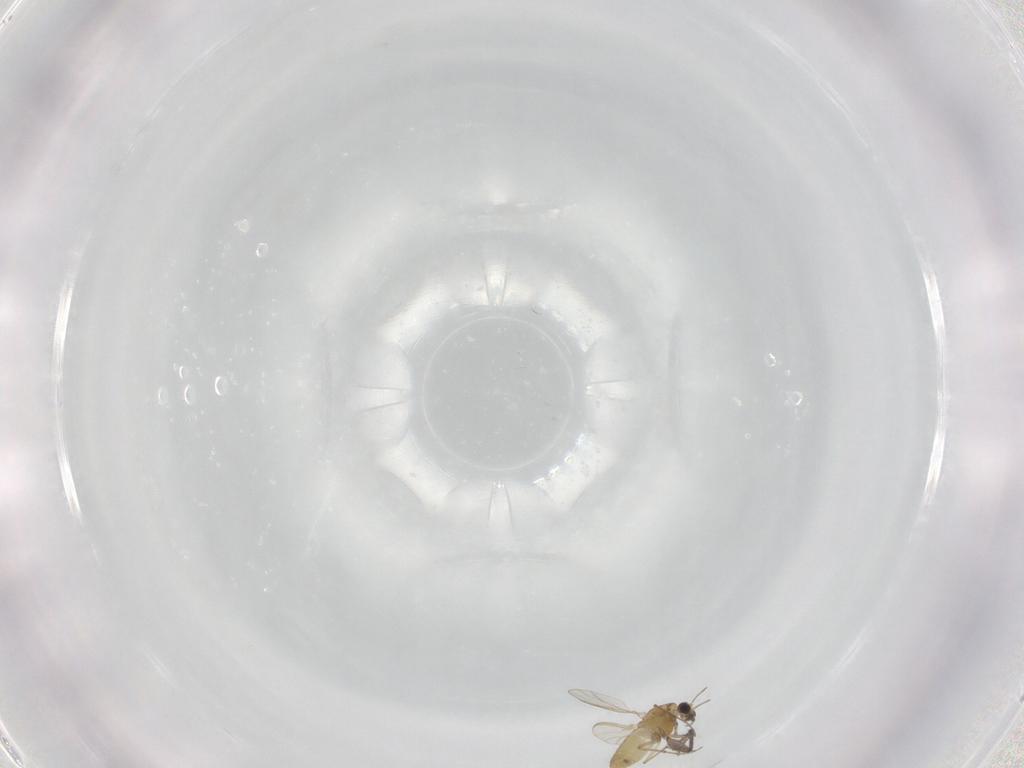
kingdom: Animalia
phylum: Arthropoda
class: Insecta
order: Diptera
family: Sciaridae
